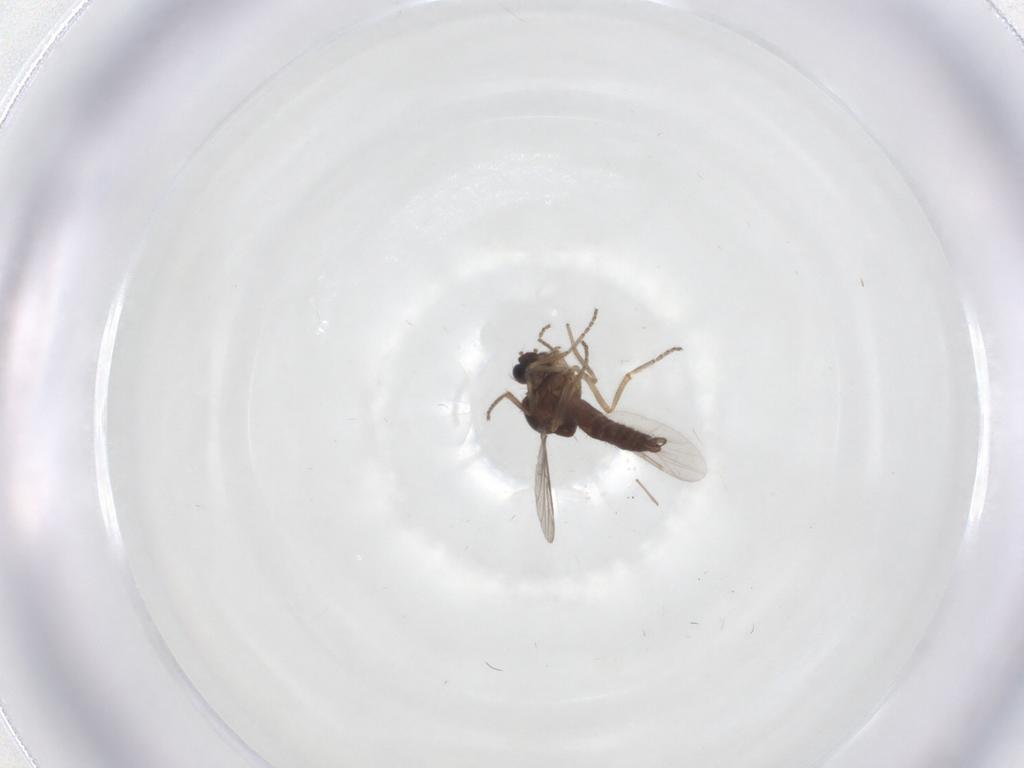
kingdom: Animalia
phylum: Arthropoda
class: Insecta
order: Diptera
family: Ceratopogonidae
